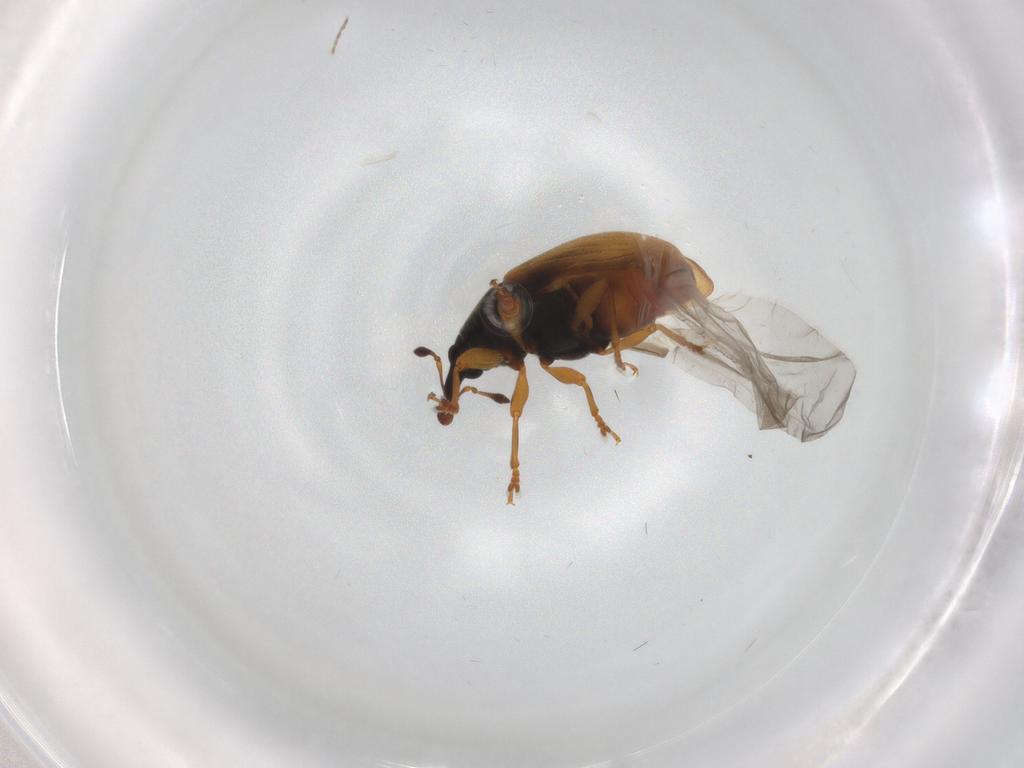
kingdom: Animalia
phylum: Arthropoda
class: Insecta
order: Coleoptera
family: Curculionidae
